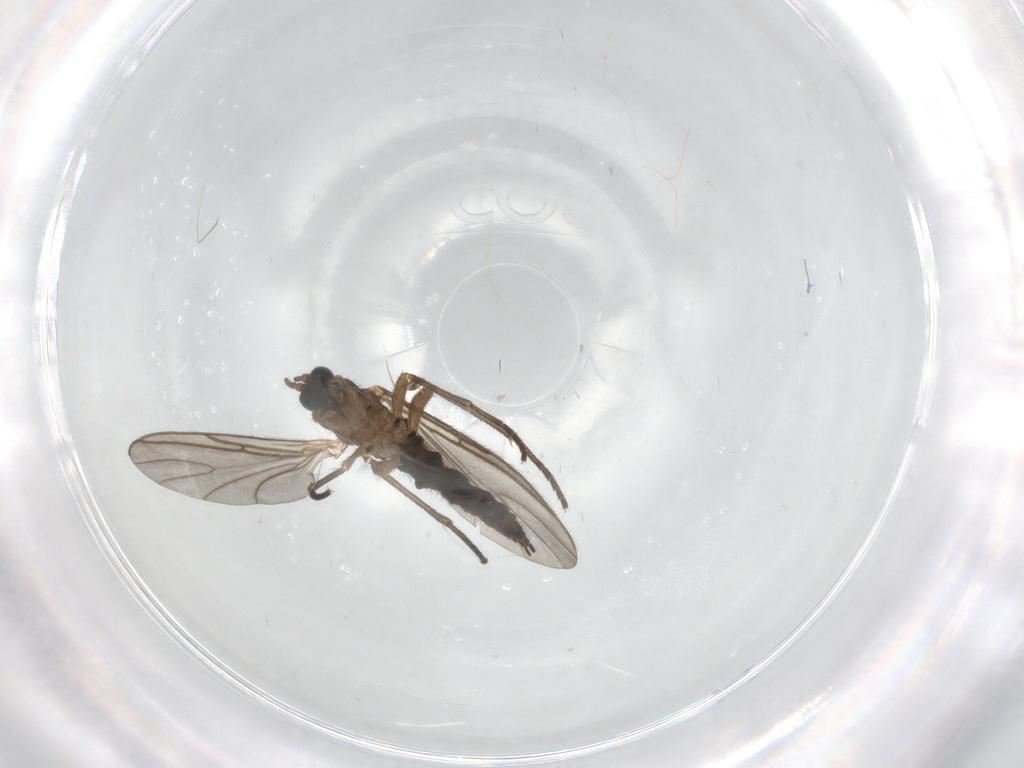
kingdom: Animalia
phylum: Arthropoda
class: Insecta
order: Diptera
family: Sciaridae
